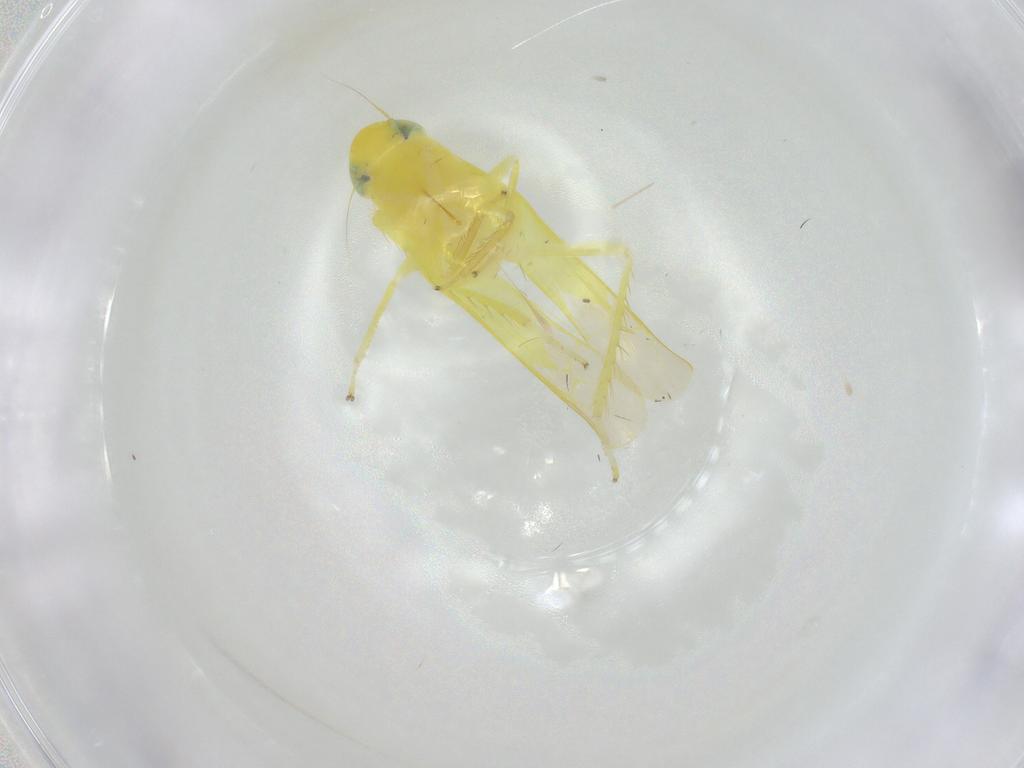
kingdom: Animalia
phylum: Arthropoda
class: Insecta
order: Hemiptera
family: Cicadellidae
